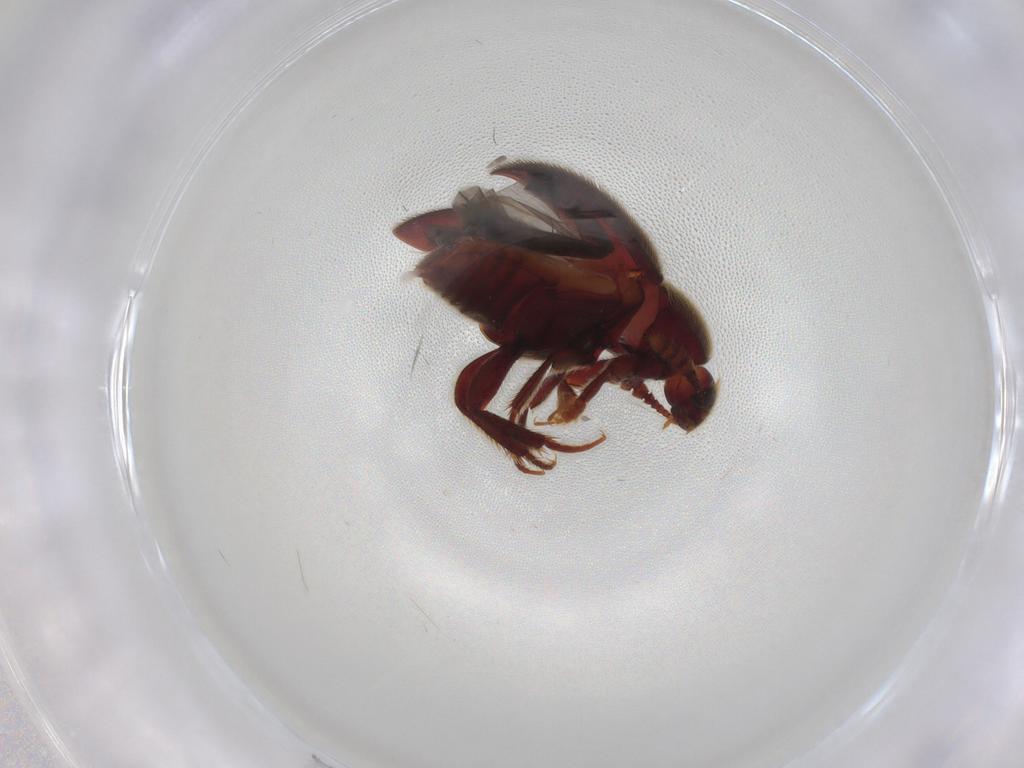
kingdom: Animalia
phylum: Arthropoda
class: Insecta
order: Coleoptera
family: Leiodidae
